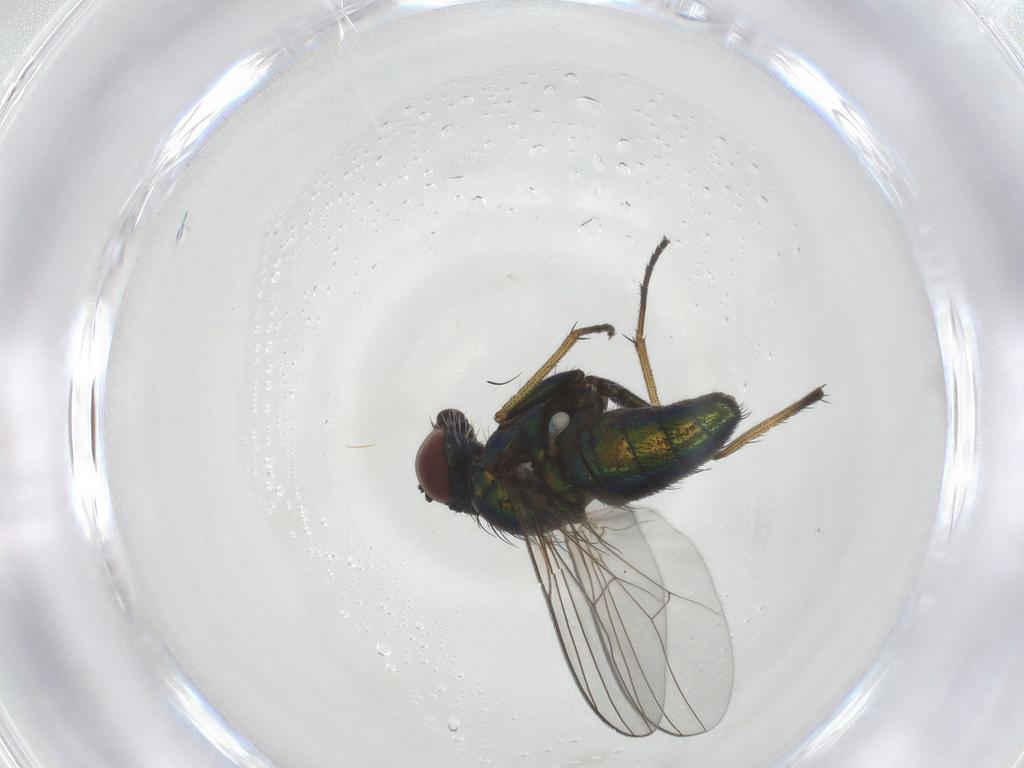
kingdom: Animalia
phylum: Arthropoda
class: Insecta
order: Diptera
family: Dolichopodidae
